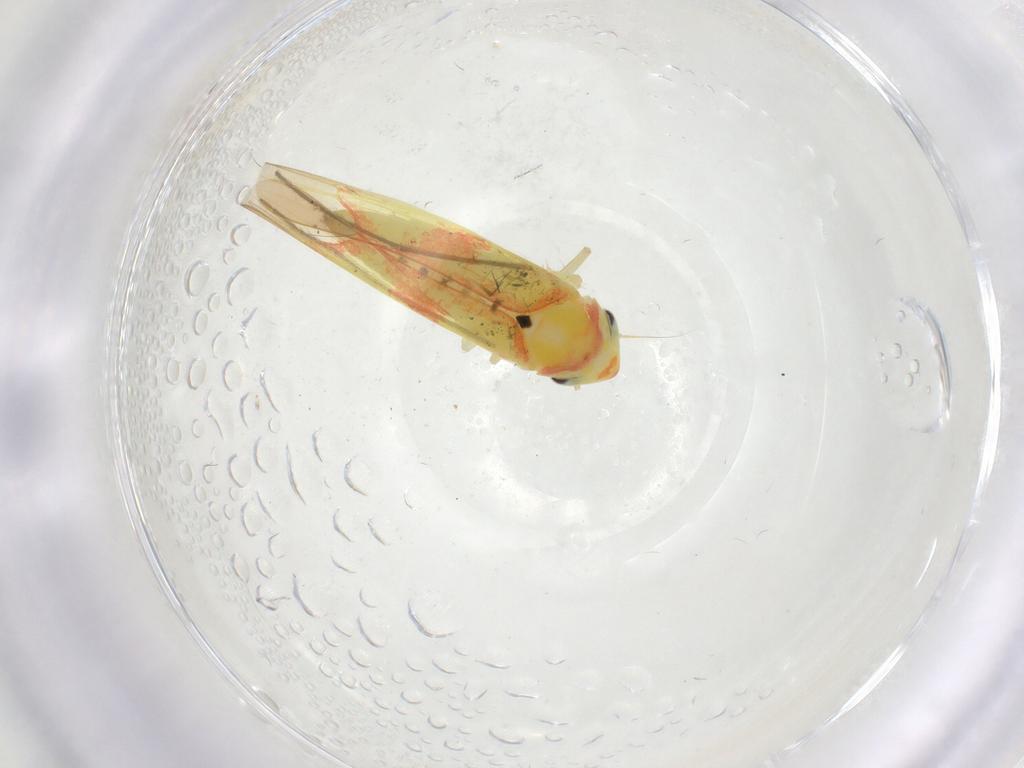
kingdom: Animalia
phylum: Arthropoda
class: Insecta
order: Hemiptera
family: Cicadellidae
